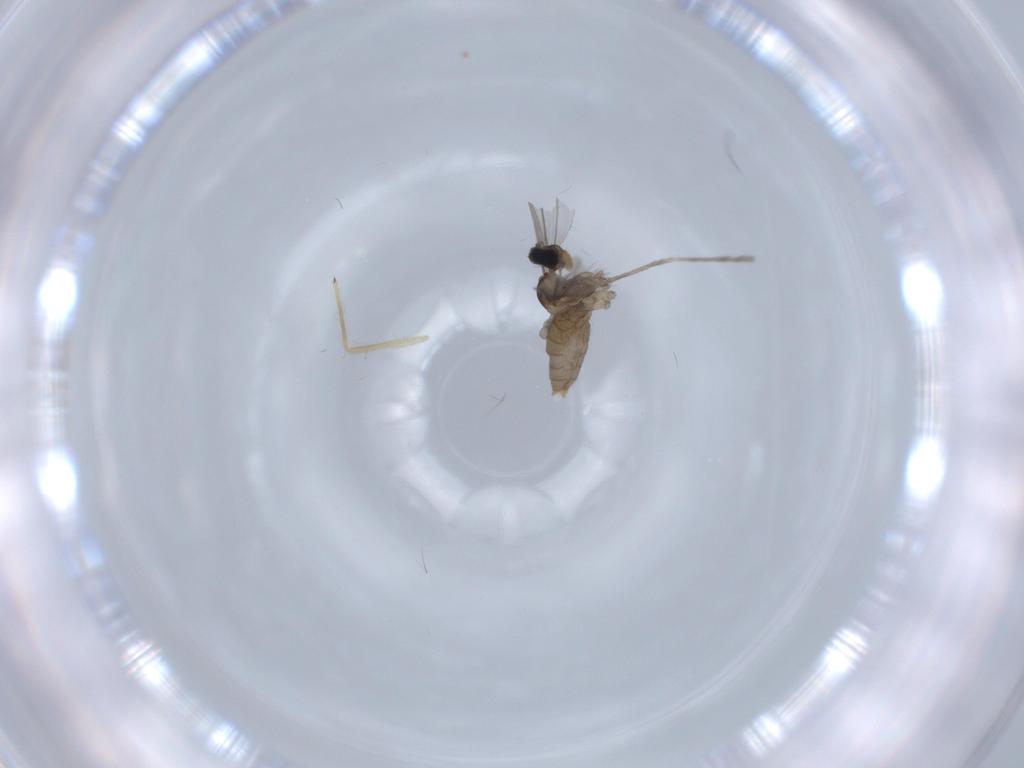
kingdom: Animalia
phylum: Arthropoda
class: Insecta
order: Diptera
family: Cecidomyiidae
